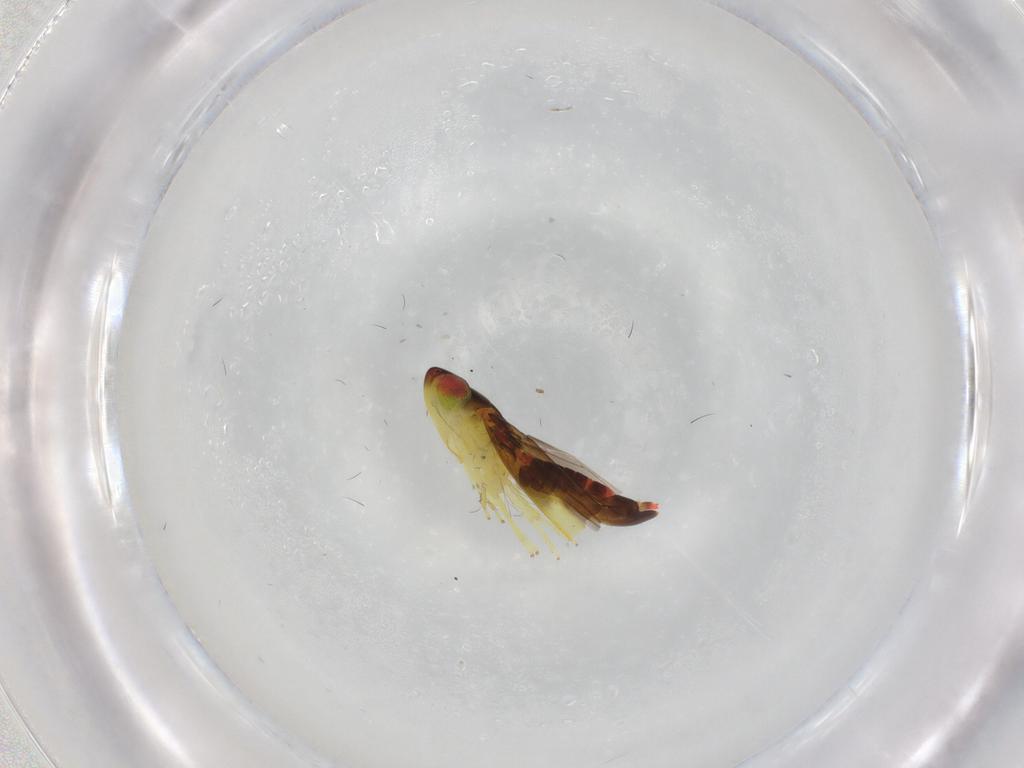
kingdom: Animalia
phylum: Arthropoda
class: Insecta
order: Hemiptera
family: Cicadellidae
